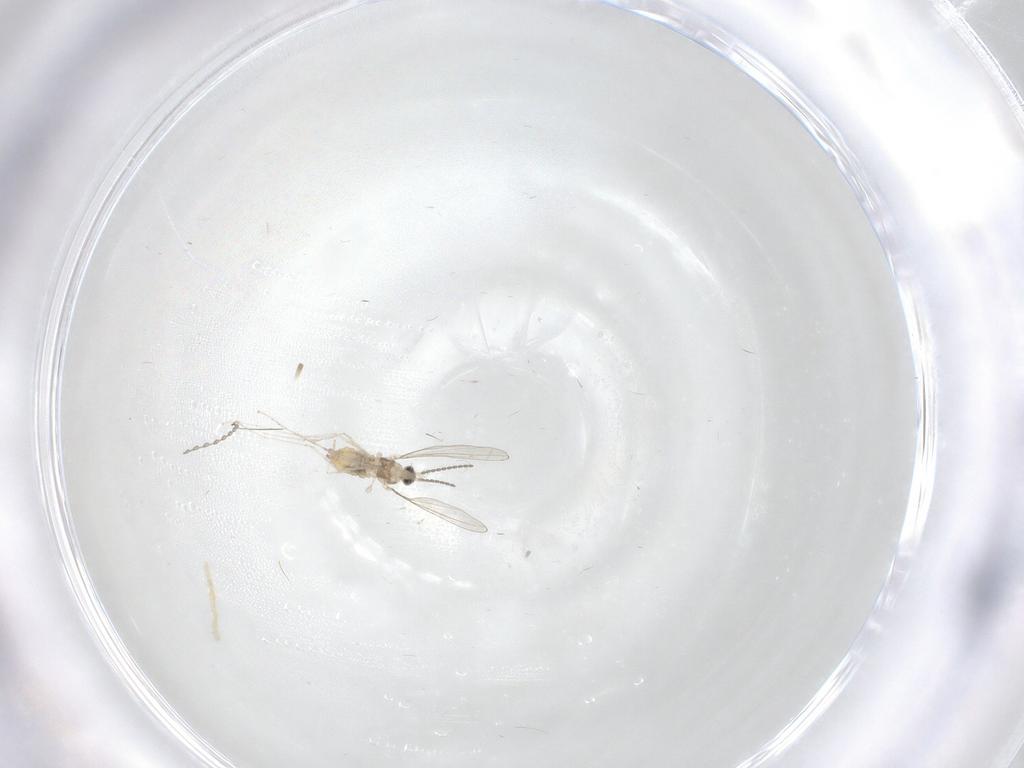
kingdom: Animalia
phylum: Arthropoda
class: Insecta
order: Diptera
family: Cecidomyiidae
